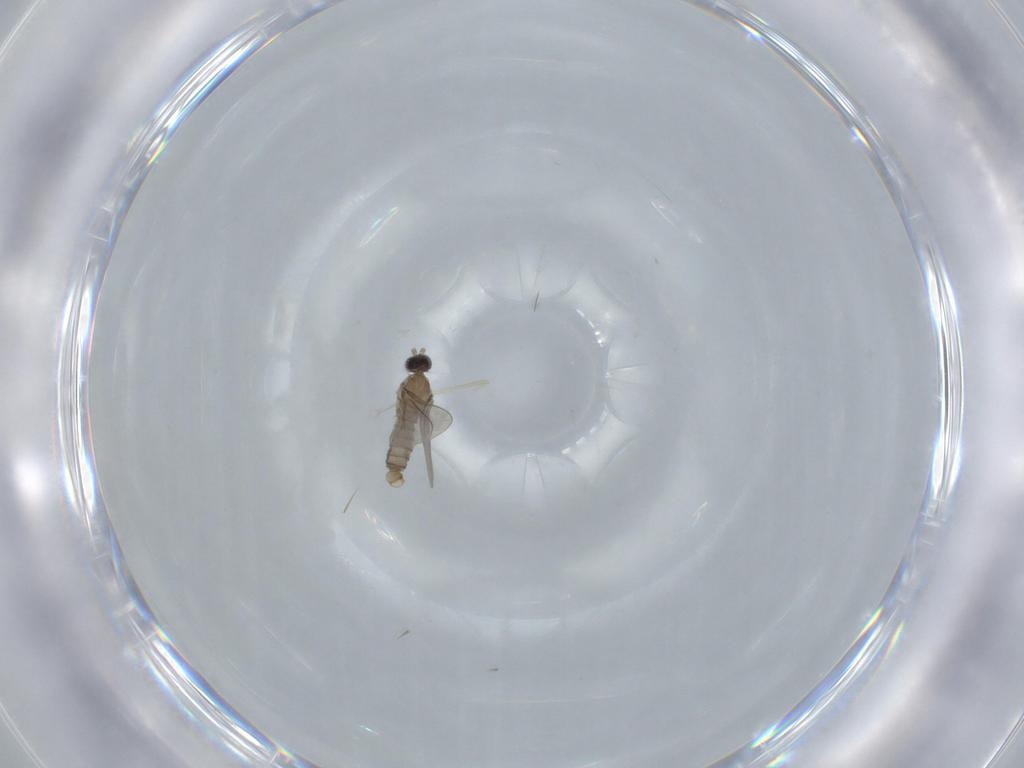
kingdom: Animalia
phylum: Arthropoda
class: Insecta
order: Diptera
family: Cecidomyiidae
